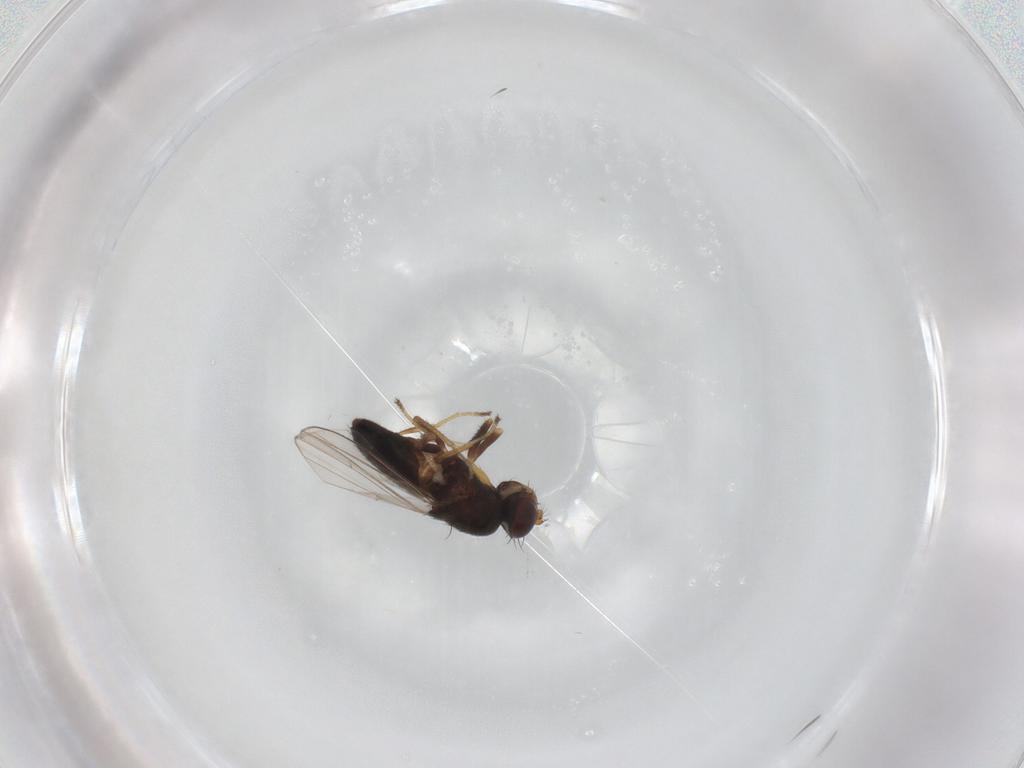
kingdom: Animalia
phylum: Arthropoda
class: Insecta
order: Diptera
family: Ephydridae
